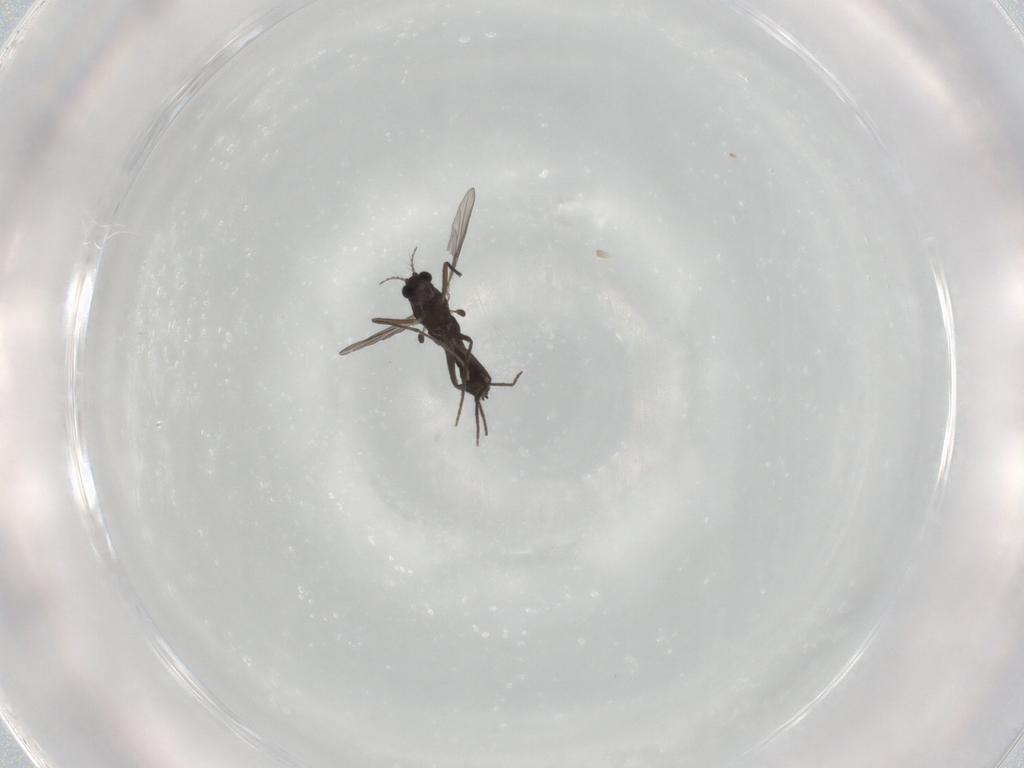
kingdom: Animalia
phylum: Arthropoda
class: Insecta
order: Diptera
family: Chironomidae
